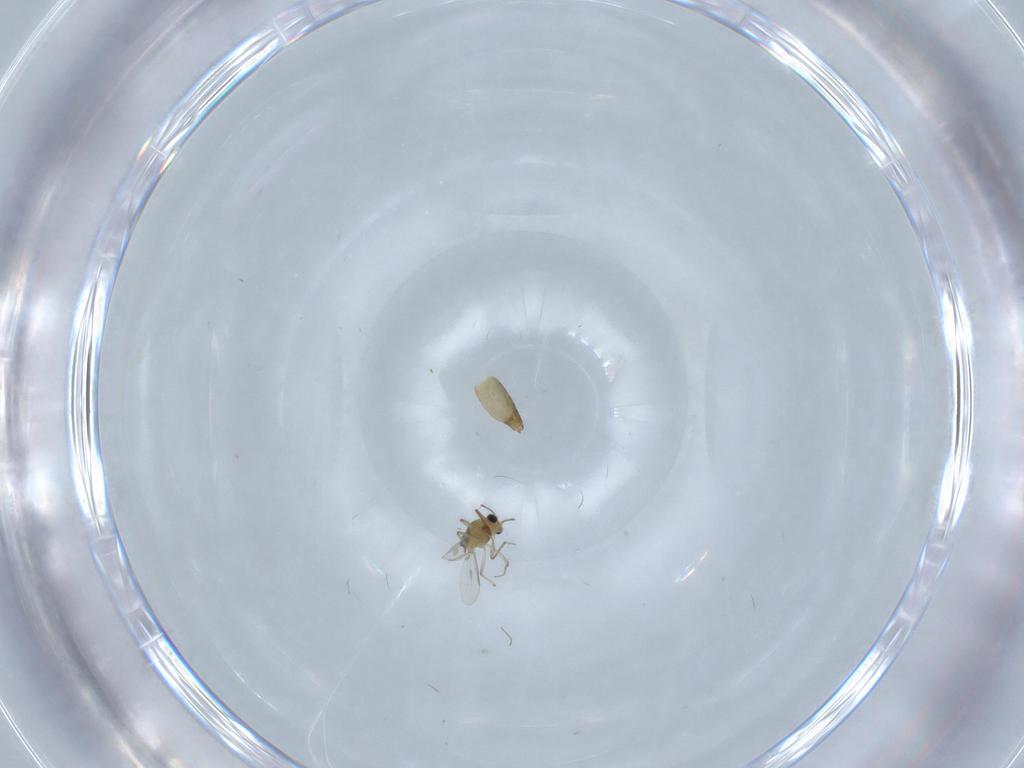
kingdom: Animalia
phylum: Arthropoda
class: Insecta
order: Diptera
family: Chironomidae
